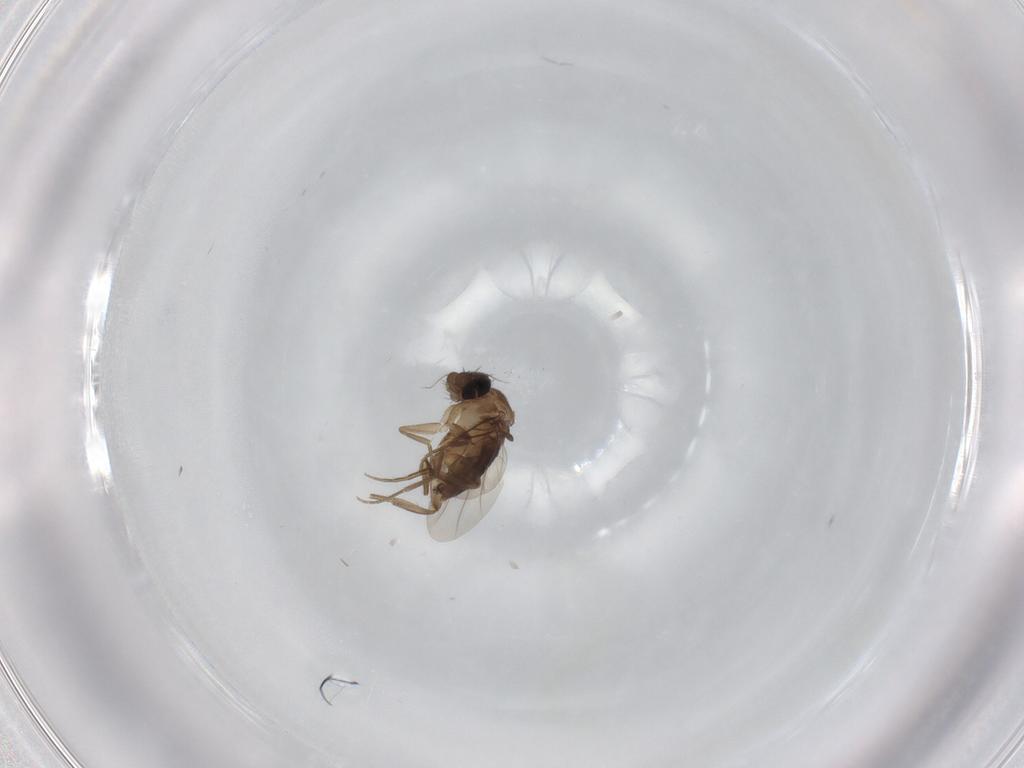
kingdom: Animalia
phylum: Arthropoda
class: Insecta
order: Diptera
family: Phoridae
